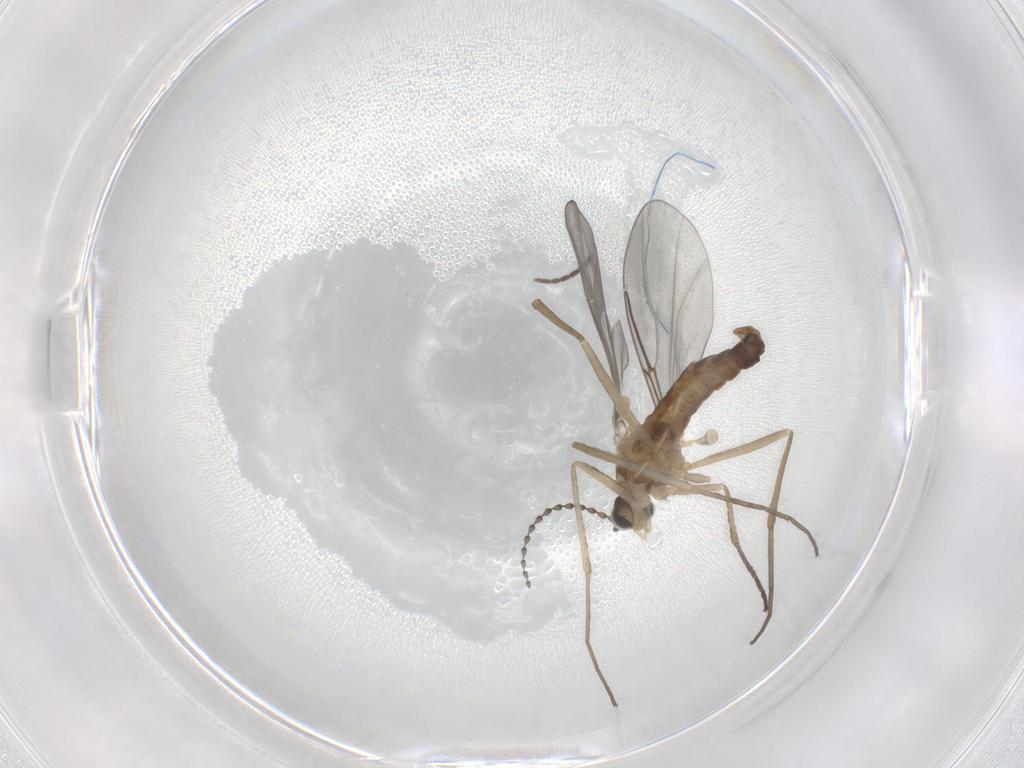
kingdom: Animalia
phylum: Arthropoda
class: Insecta
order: Diptera
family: Cecidomyiidae
